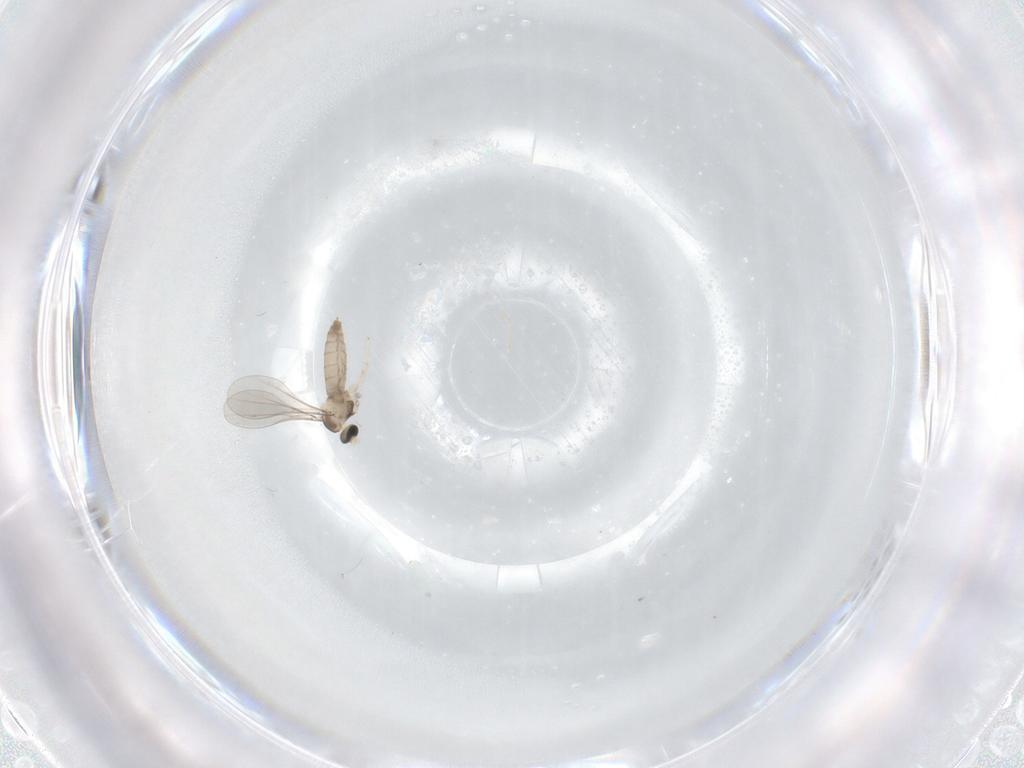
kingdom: Animalia
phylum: Arthropoda
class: Insecta
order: Diptera
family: Cecidomyiidae
